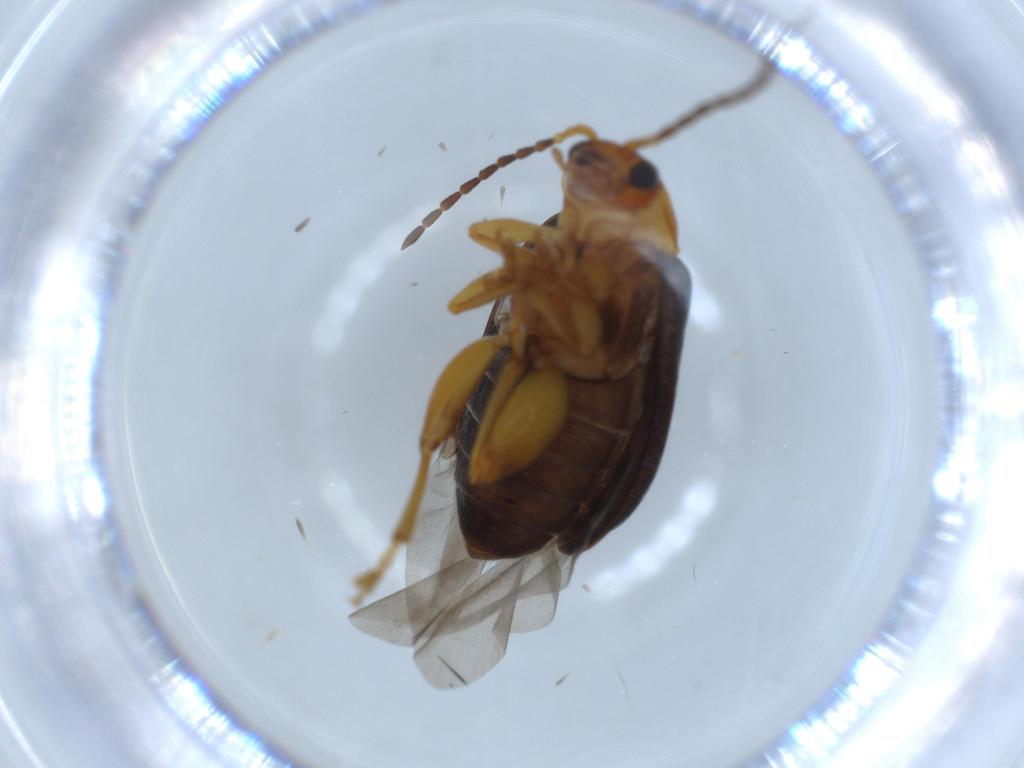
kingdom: Animalia
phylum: Arthropoda
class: Insecta
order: Coleoptera
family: Chrysomelidae
